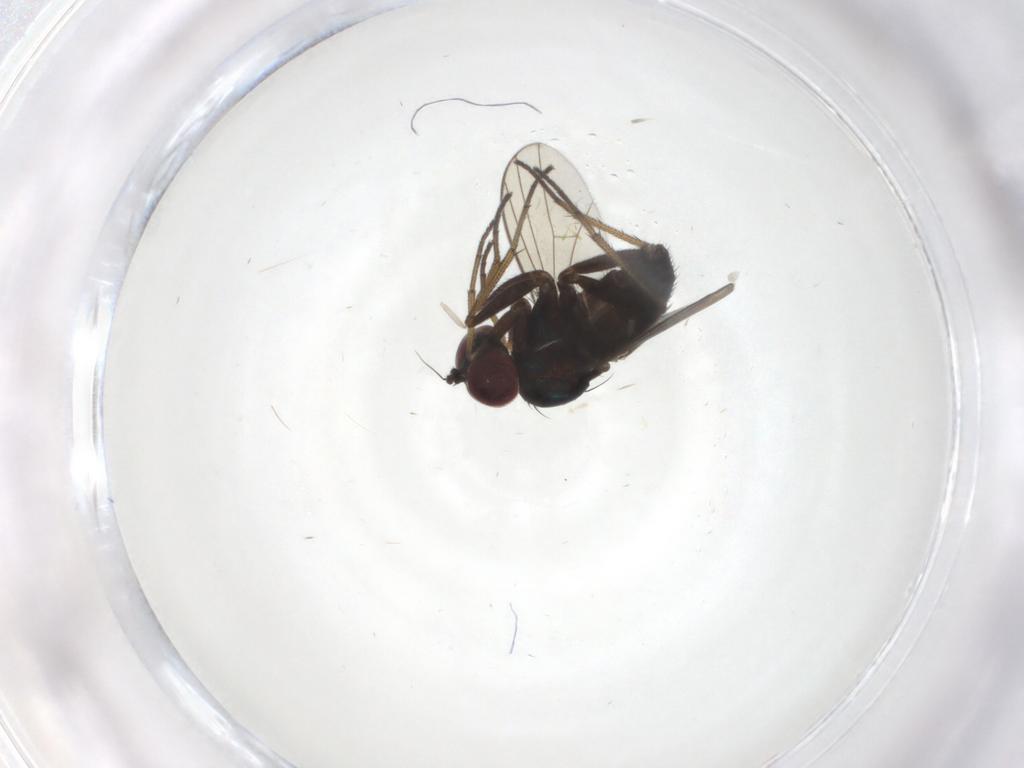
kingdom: Animalia
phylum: Arthropoda
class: Insecta
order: Diptera
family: Dolichopodidae
